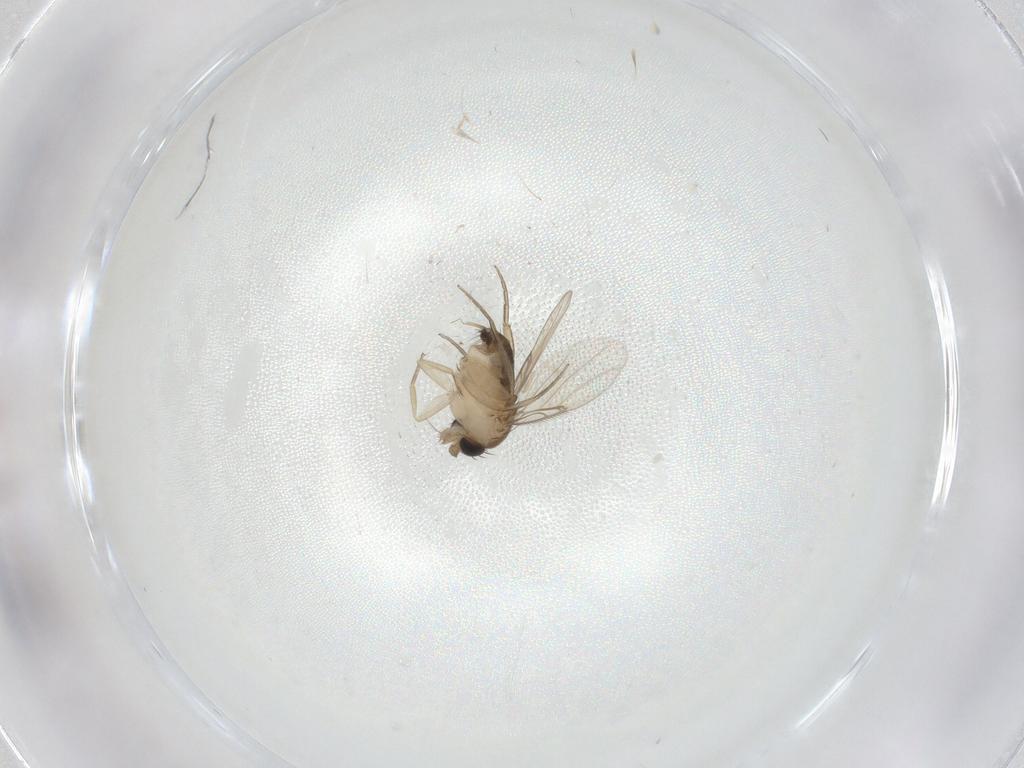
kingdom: Animalia
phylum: Arthropoda
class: Insecta
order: Diptera
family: Phoridae
